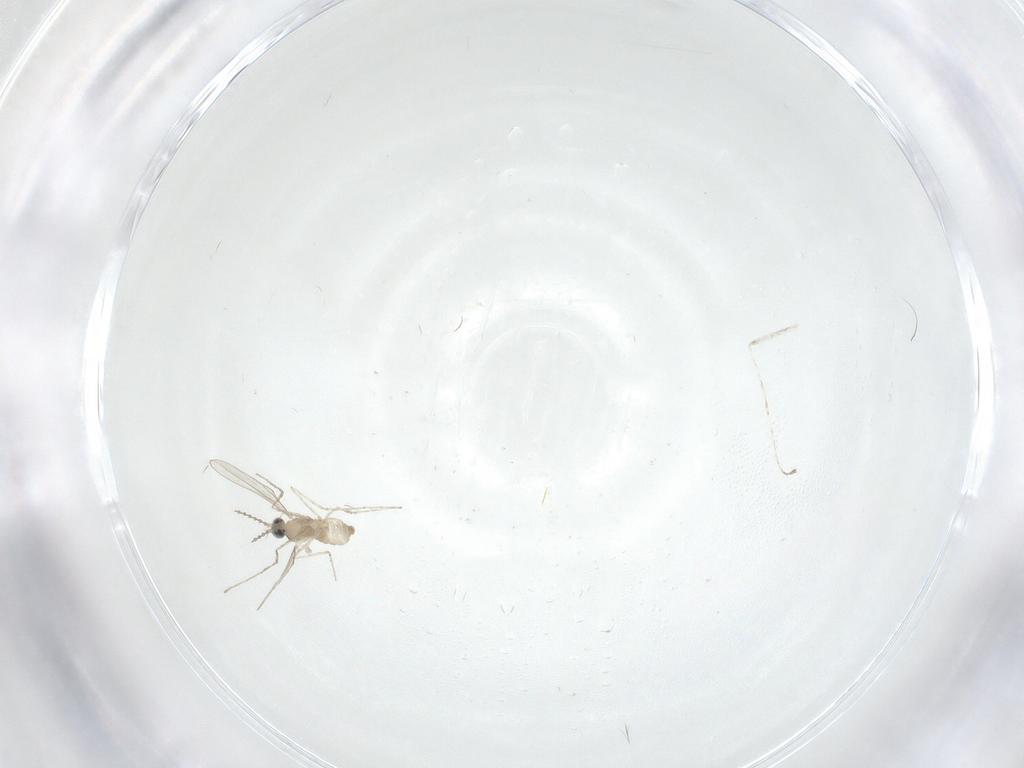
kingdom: Animalia
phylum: Arthropoda
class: Insecta
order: Diptera
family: Cecidomyiidae
